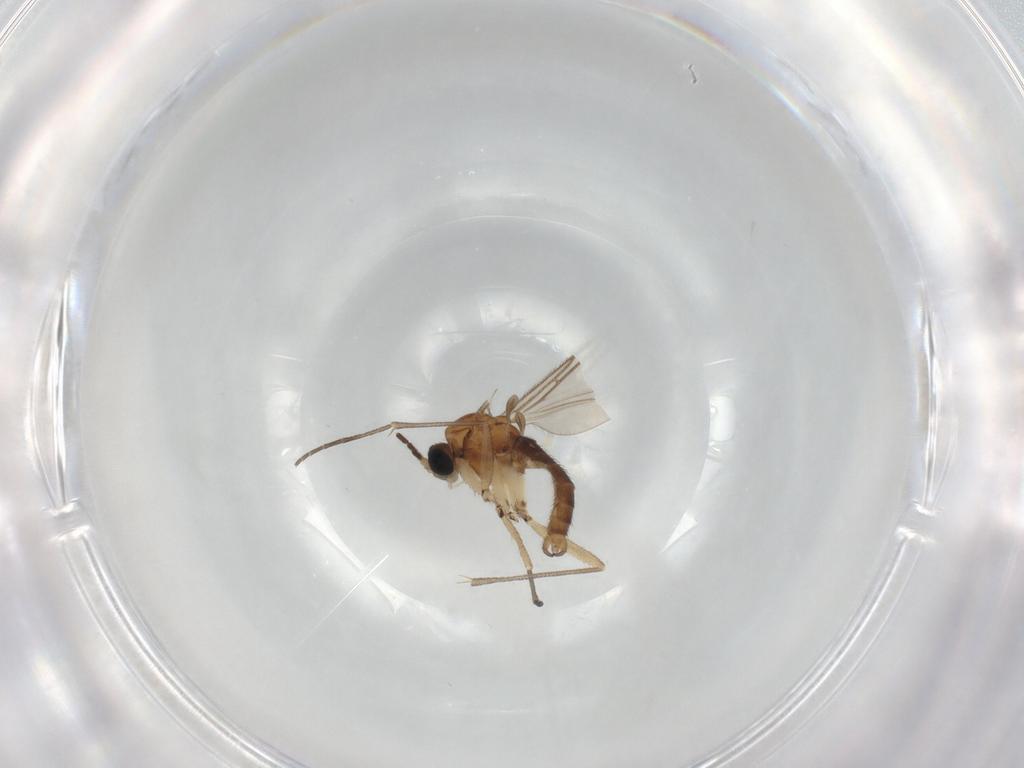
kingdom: Animalia
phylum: Arthropoda
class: Insecta
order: Diptera
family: Sciaridae
